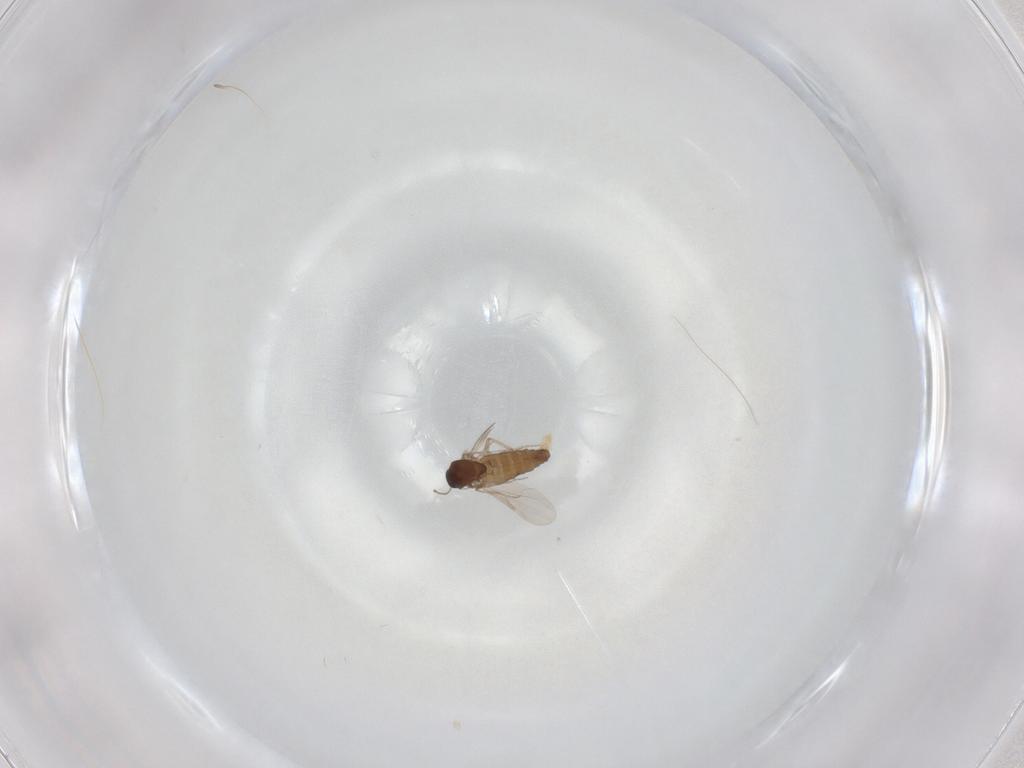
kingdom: Animalia
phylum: Arthropoda
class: Insecta
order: Diptera
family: Ceratopogonidae
